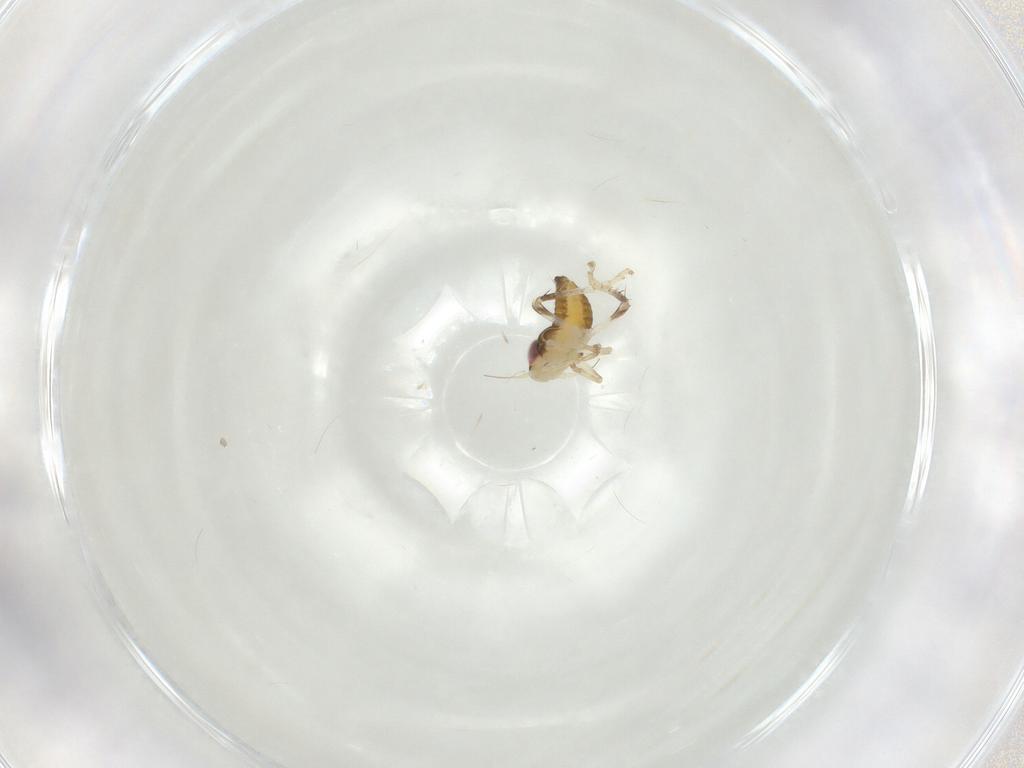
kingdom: Animalia
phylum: Arthropoda
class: Insecta
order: Hemiptera
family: Cicadellidae
